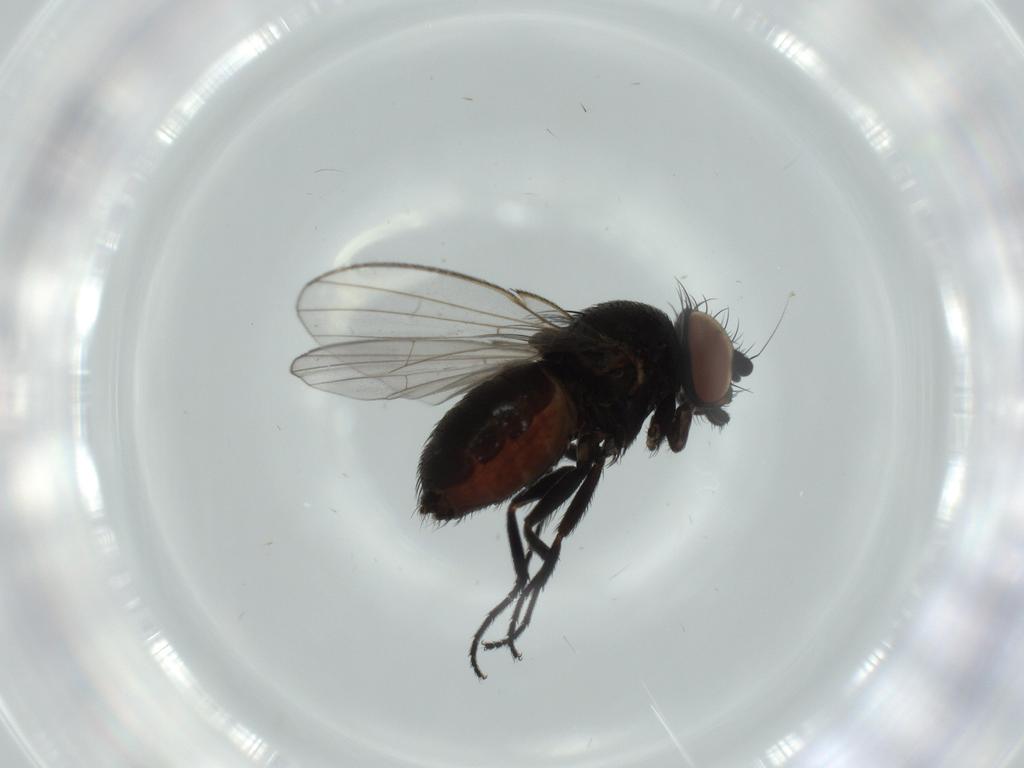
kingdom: Animalia
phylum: Arthropoda
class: Insecta
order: Diptera
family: Milichiidae
